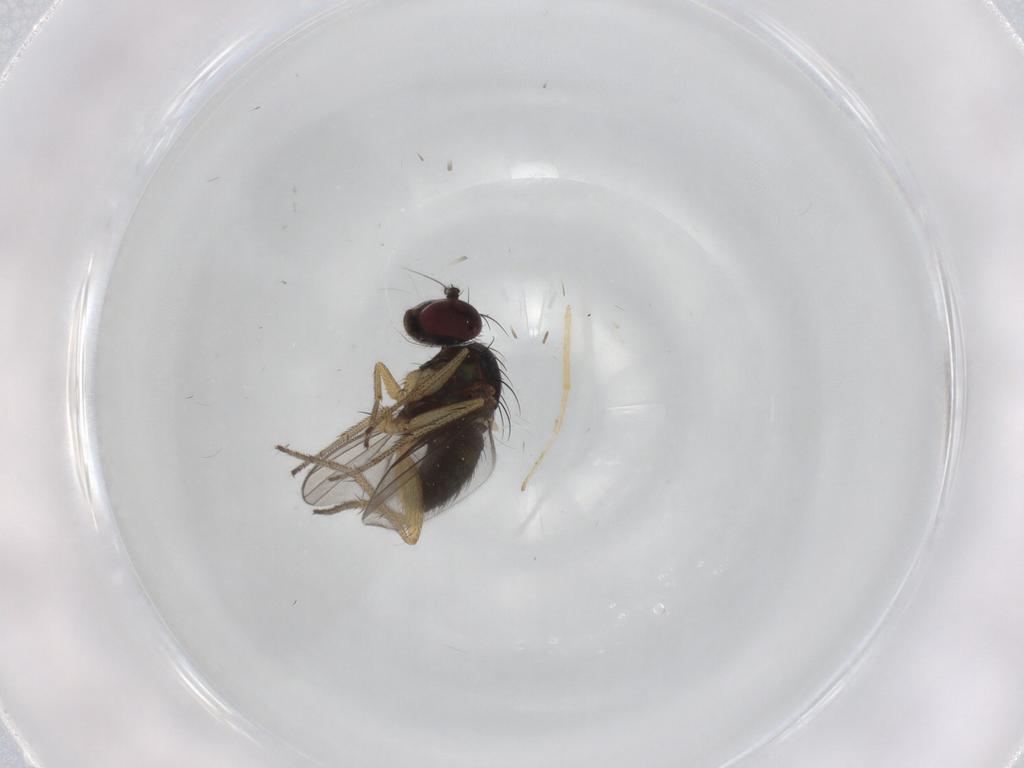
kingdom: Animalia
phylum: Arthropoda
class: Insecta
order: Diptera
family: Chironomidae
